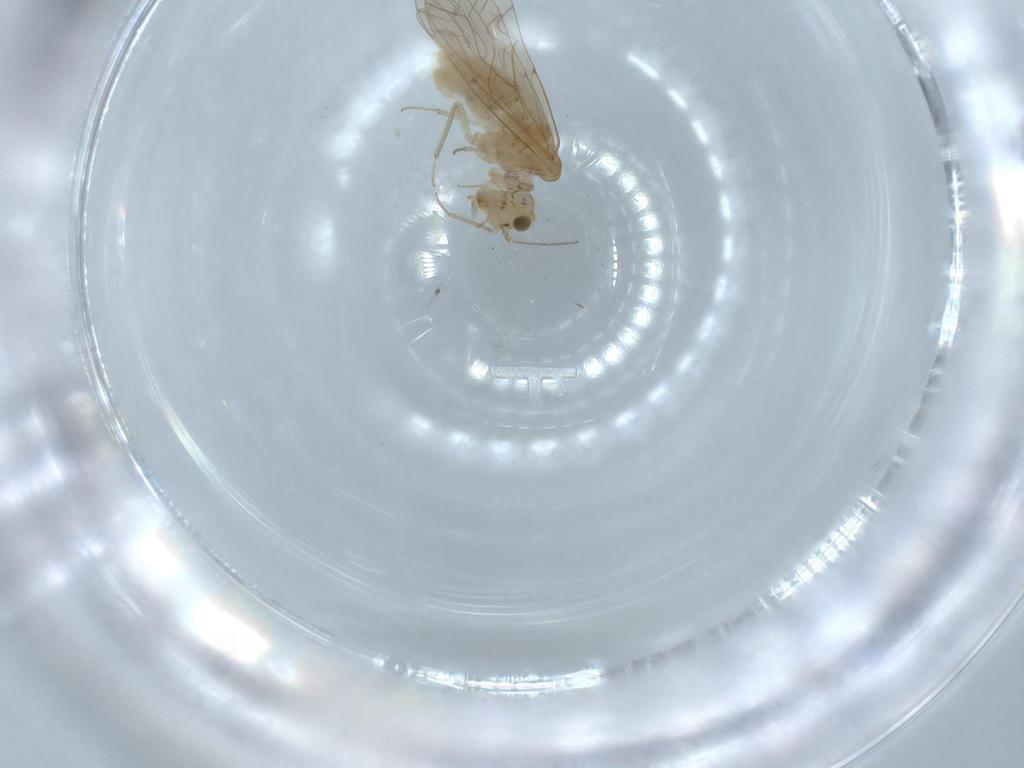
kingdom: Animalia
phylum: Arthropoda
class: Insecta
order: Psocodea
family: Lachesillidae
